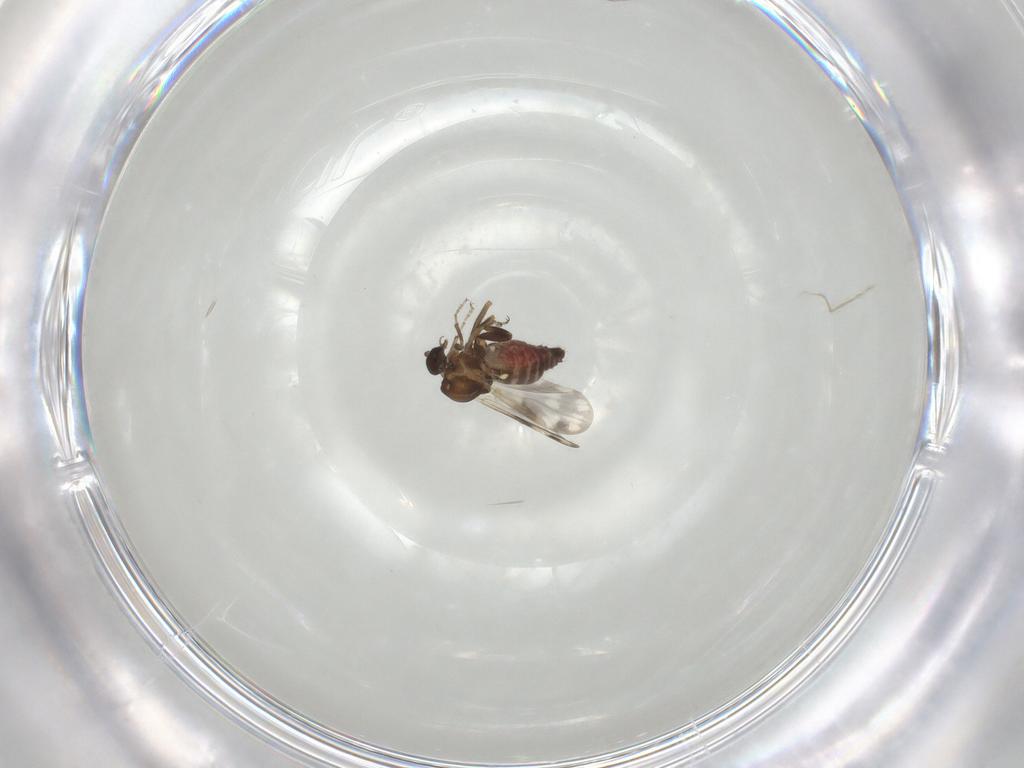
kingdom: Animalia
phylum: Arthropoda
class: Insecta
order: Diptera
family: Ceratopogonidae
